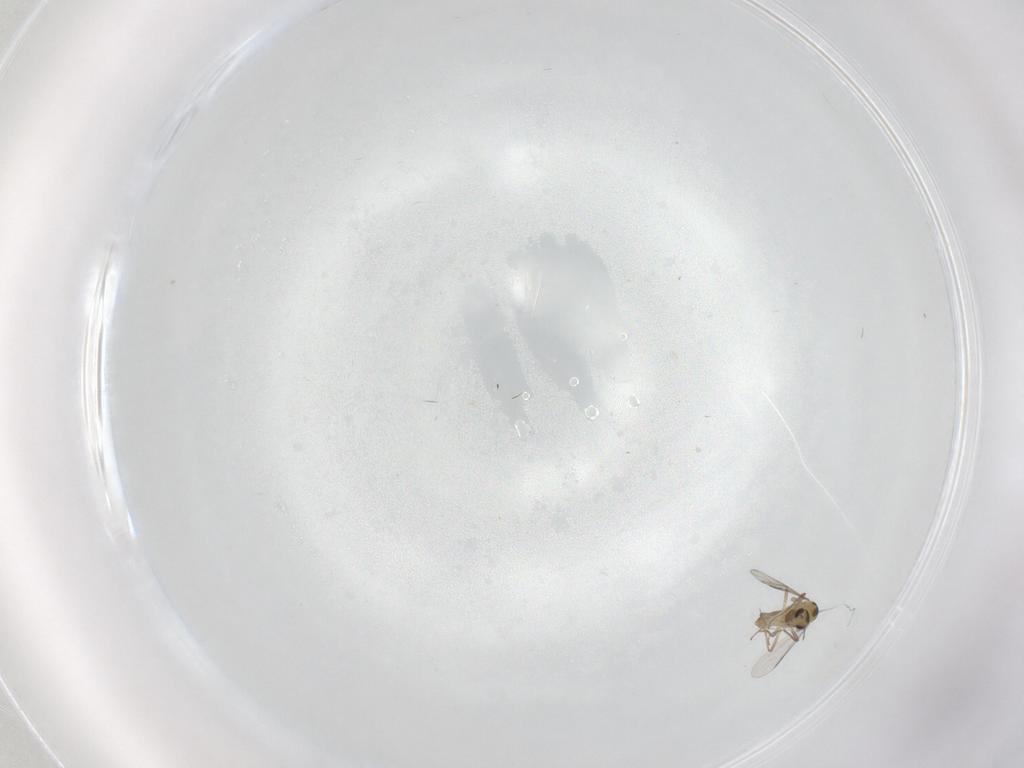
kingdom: Animalia
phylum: Arthropoda
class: Insecta
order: Diptera
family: Chironomidae
